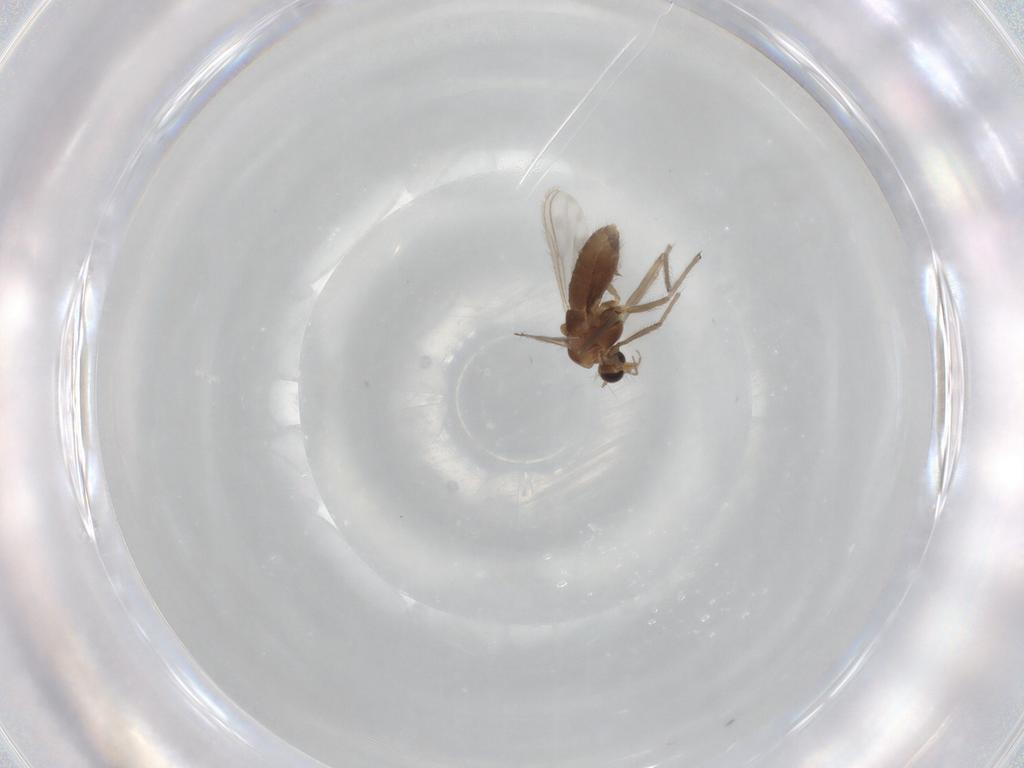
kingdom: Animalia
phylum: Arthropoda
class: Insecta
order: Diptera
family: Chironomidae
